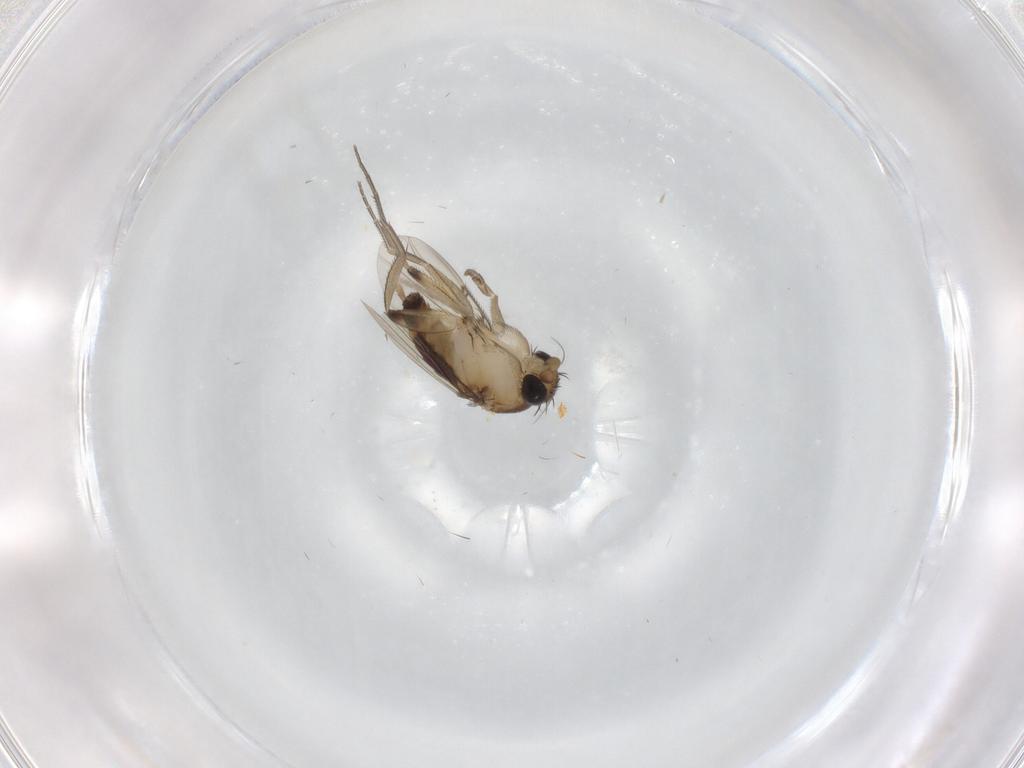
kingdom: Animalia
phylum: Arthropoda
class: Insecta
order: Diptera
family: Chironomidae
